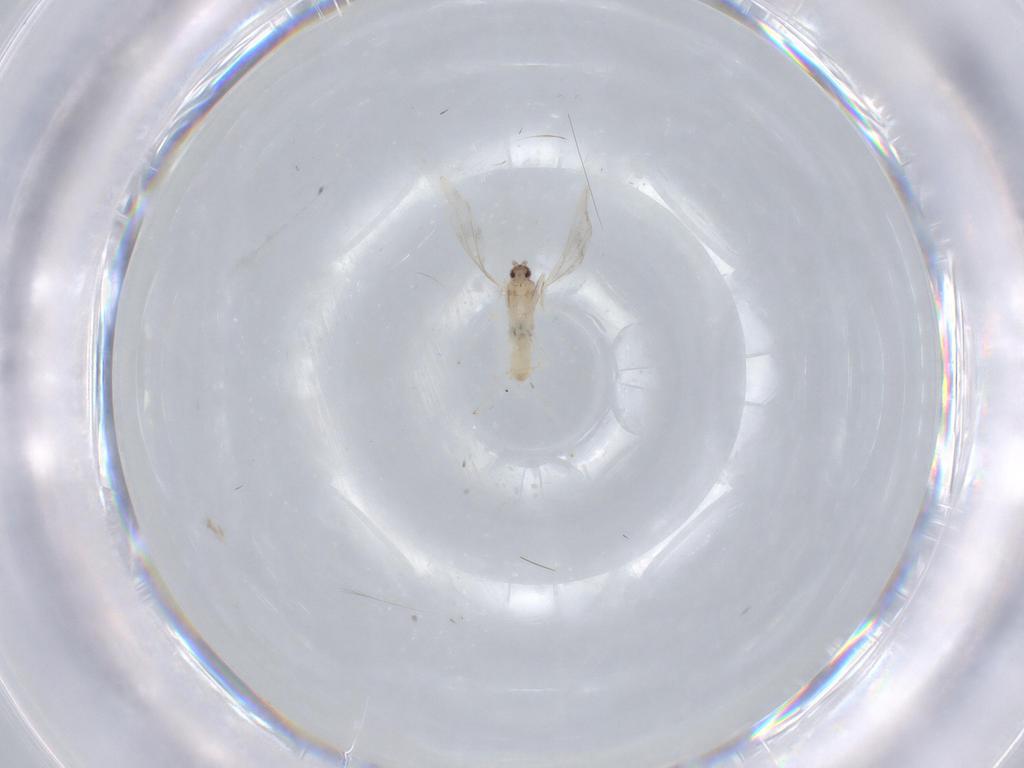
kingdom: Animalia
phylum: Arthropoda
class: Insecta
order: Diptera
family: Cecidomyiidae
